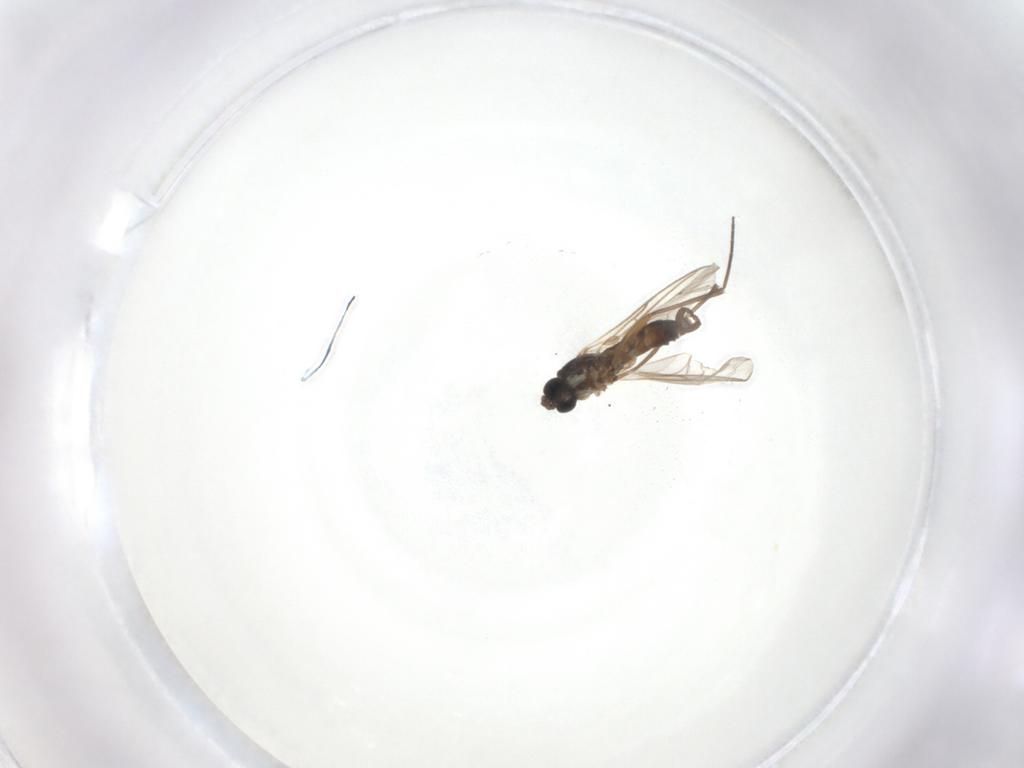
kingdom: Animalia
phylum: Arthropoda
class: Insecta
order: Diptera
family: Sciaridae
